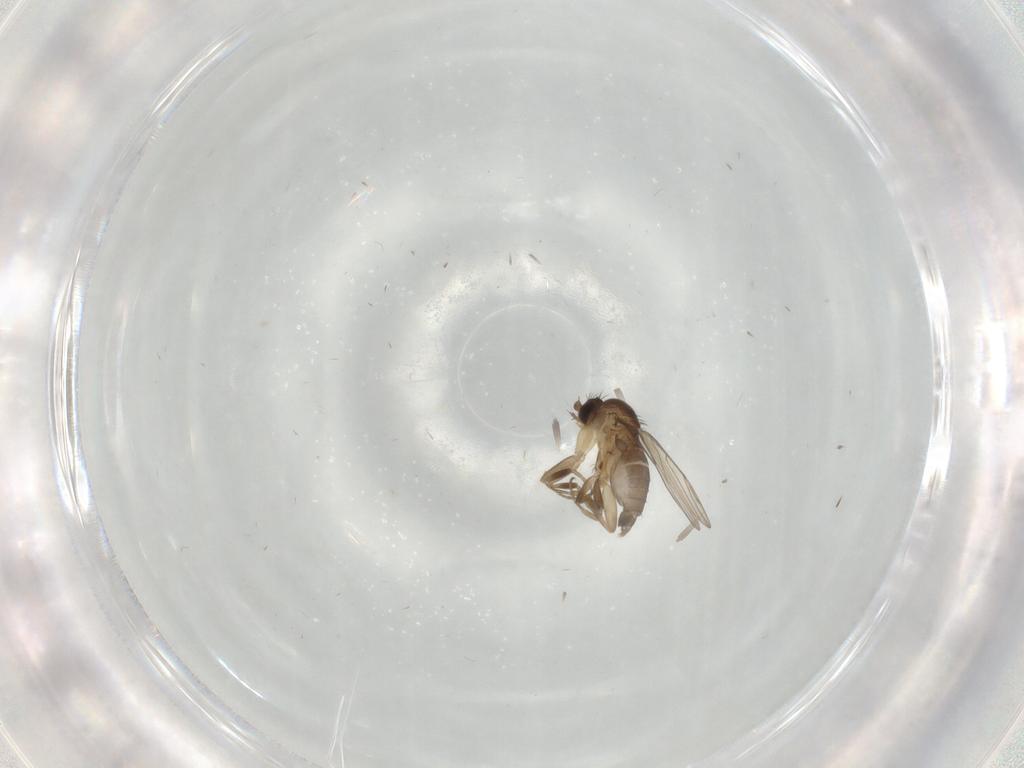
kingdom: Animalia
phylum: Arthropoda
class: Insecta
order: Diptera
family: Phoridae
